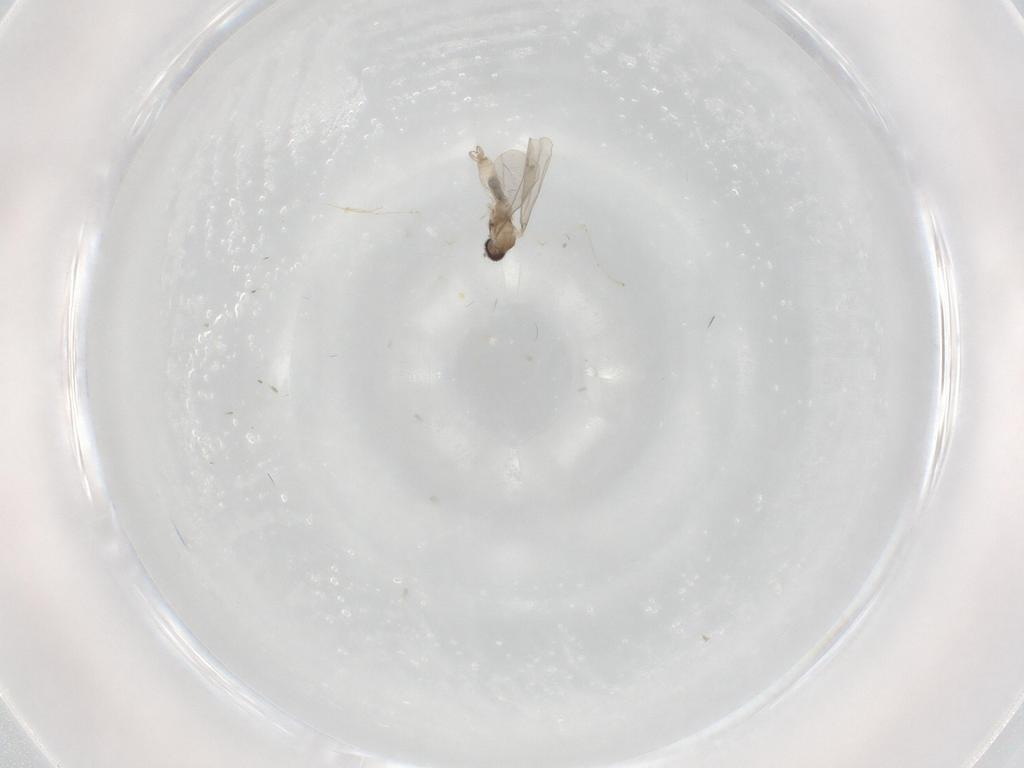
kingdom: Animalia
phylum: Arthropoda
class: Insecta
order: Diptera
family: Cecidomyiidae
